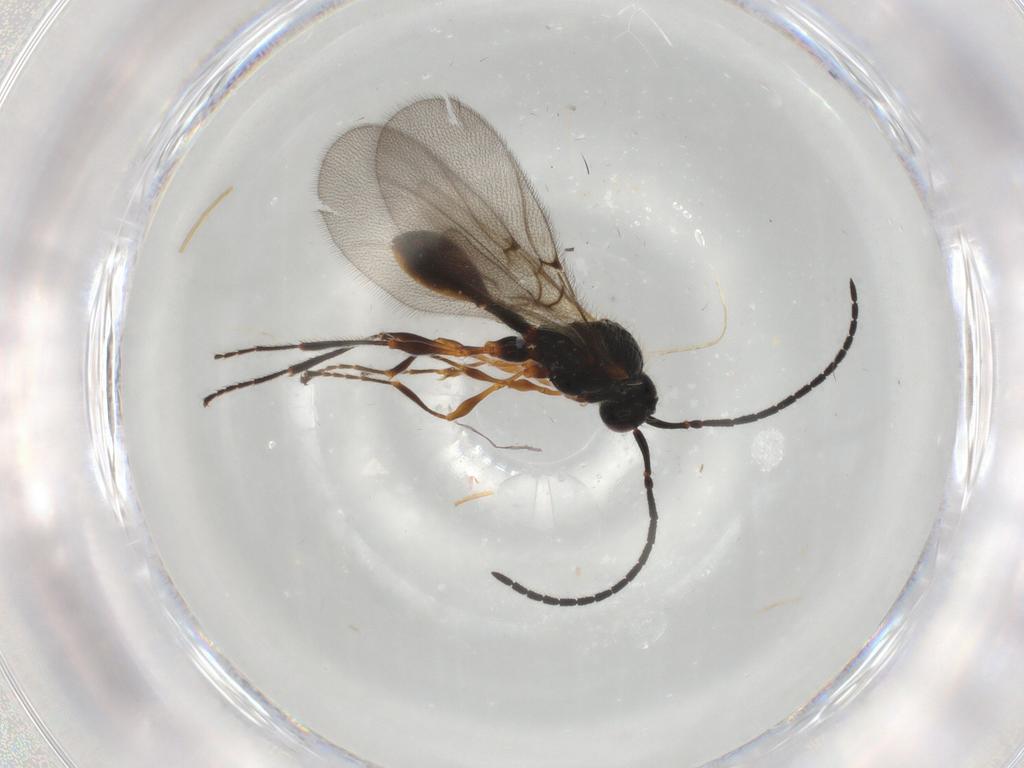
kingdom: Animalia
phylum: Arthropoda
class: Insecta
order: Hymenoptera
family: Diapriidae
